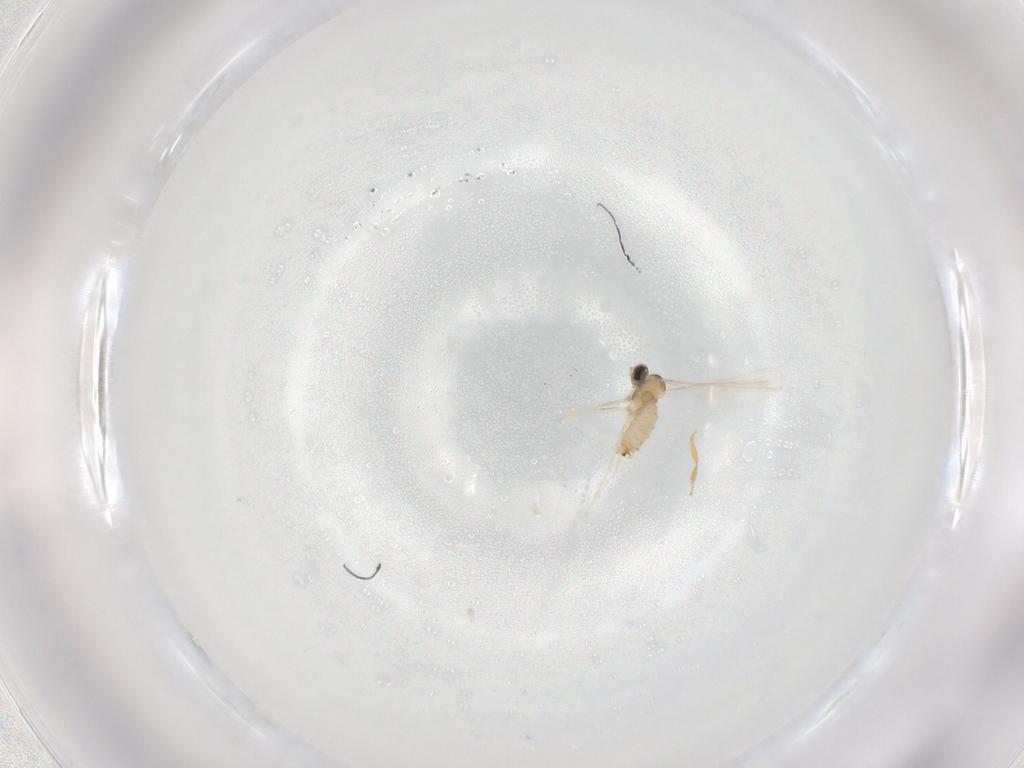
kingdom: Animalia
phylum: Arthropoda
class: Insecta
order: Diptera
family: Cecidomyiidae
